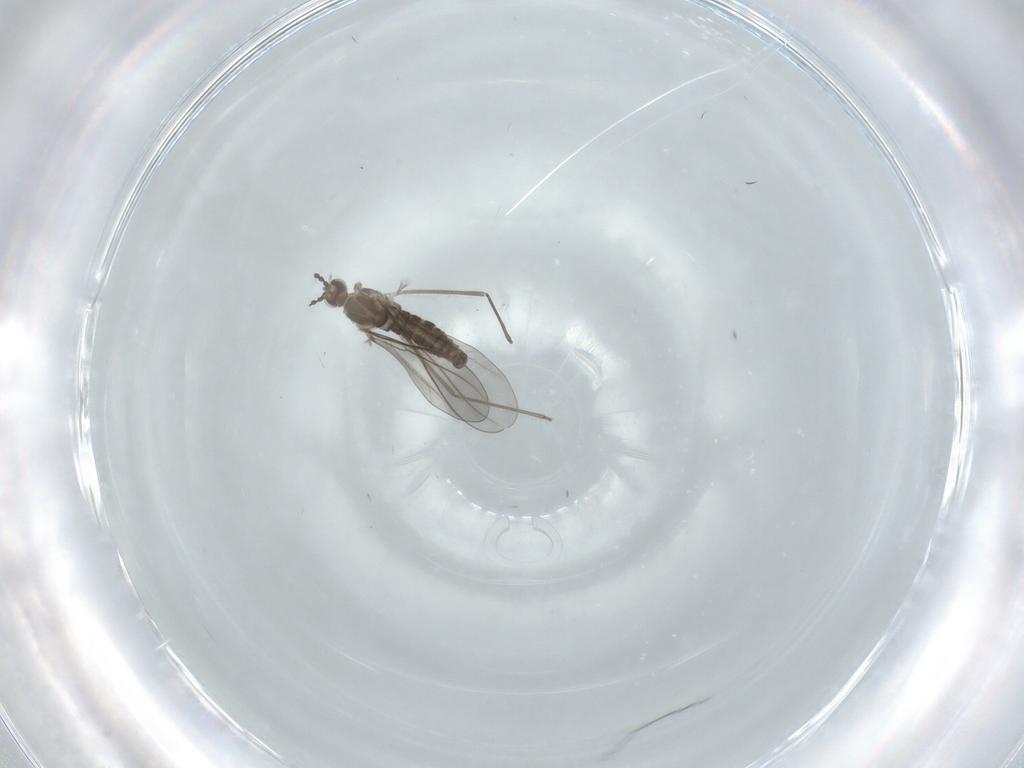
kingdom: Animalia
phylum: Arthropoda
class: Insecta
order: Diptera
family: Cecidomyiidae
